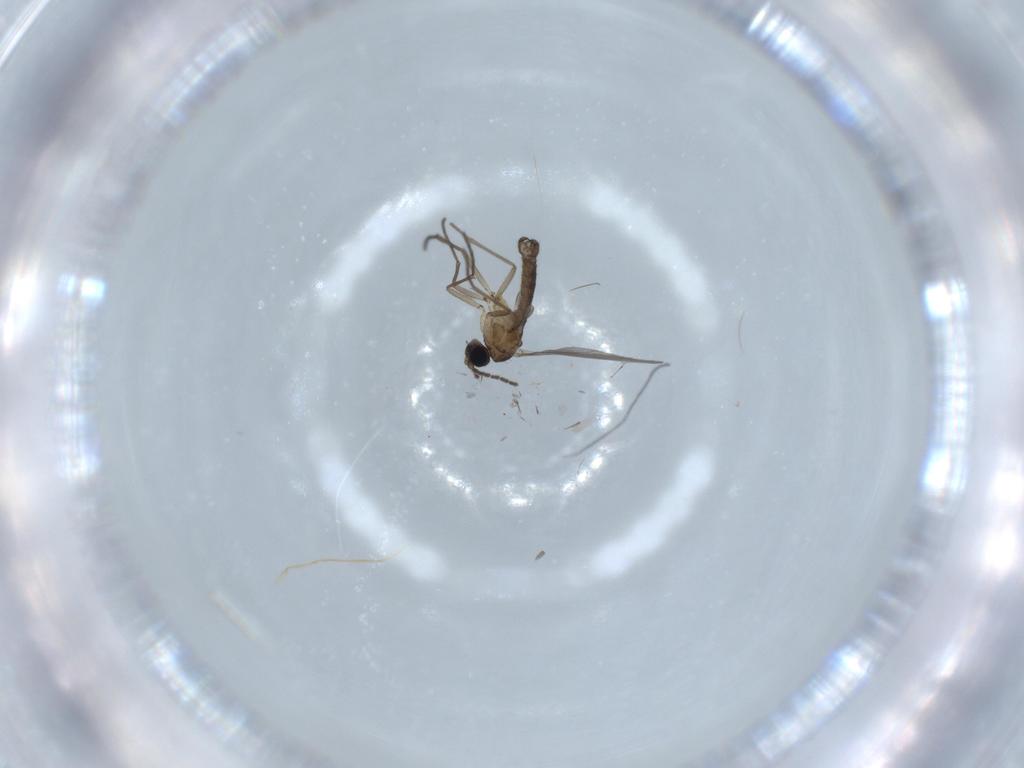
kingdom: Animalia
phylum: Arthropoda
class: Insecta
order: Diptera
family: Sciaridae
